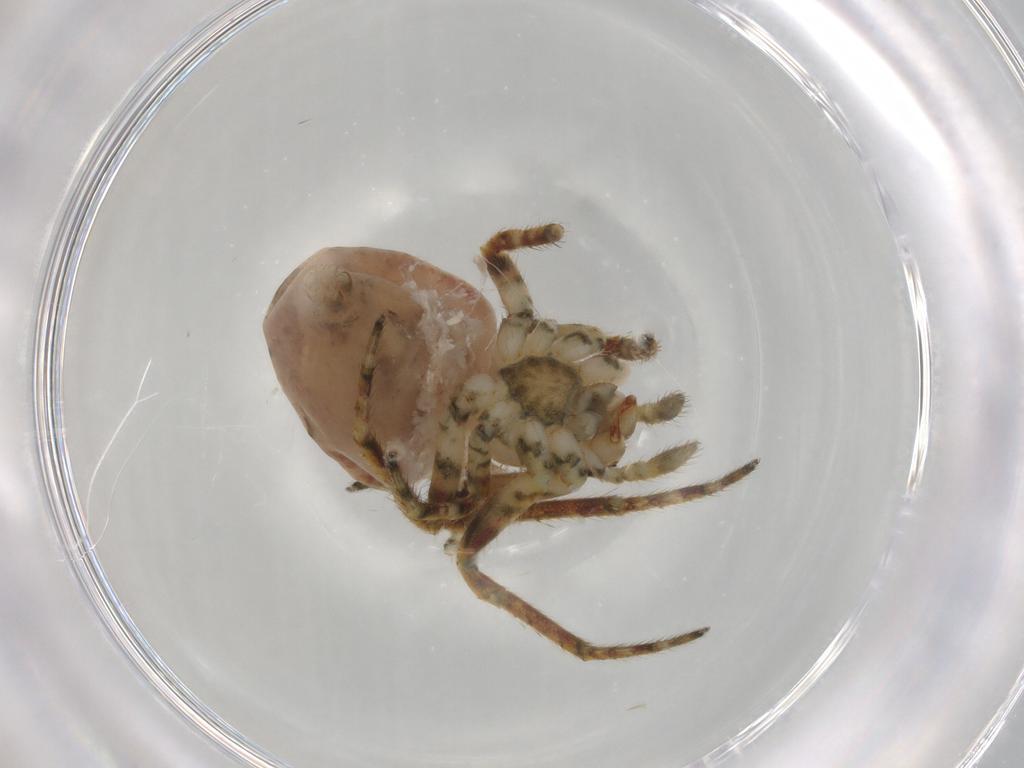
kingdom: Animalia
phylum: Arthropoda
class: Arachnida
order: Araneae
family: Araneidae
